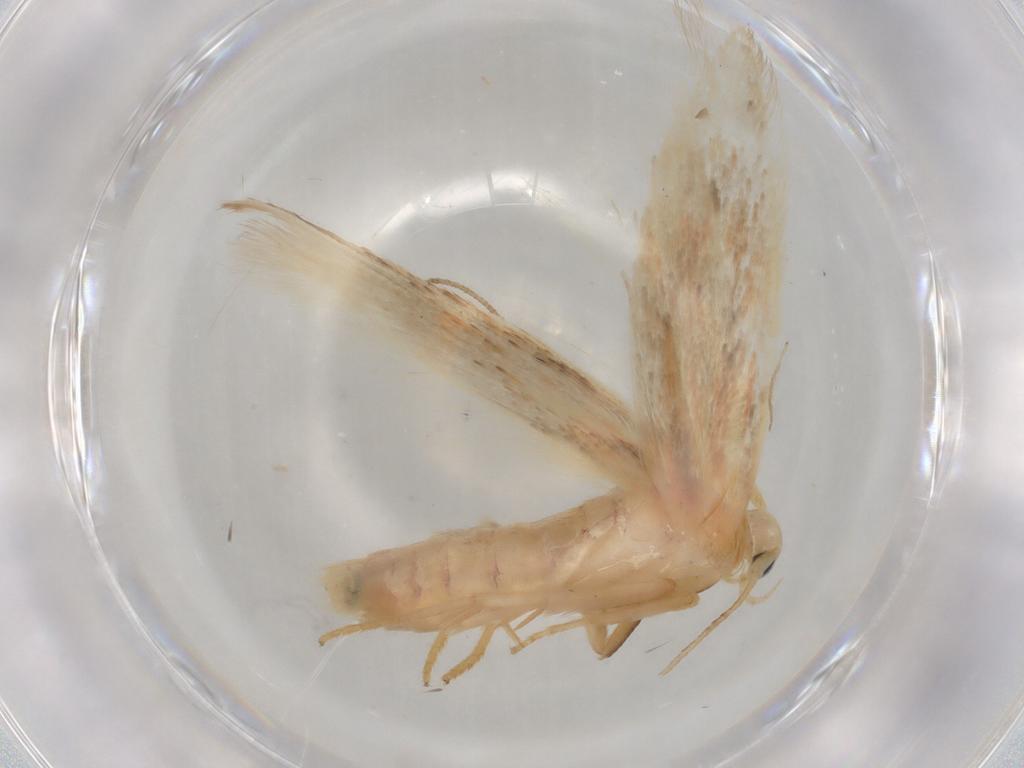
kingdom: Animalia
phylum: Arthropoda
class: Insecta
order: Lepidoptera
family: Geometridae
